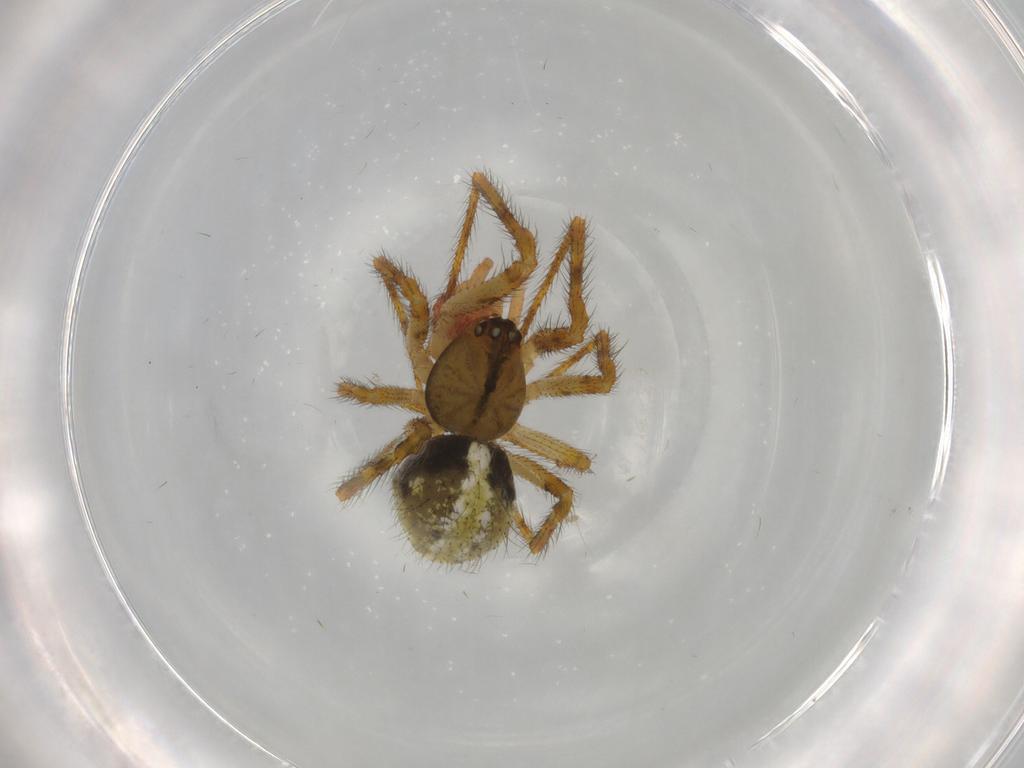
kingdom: Animalia
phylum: Arthropoda
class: Arachnida
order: Araneae
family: Theridiidae
